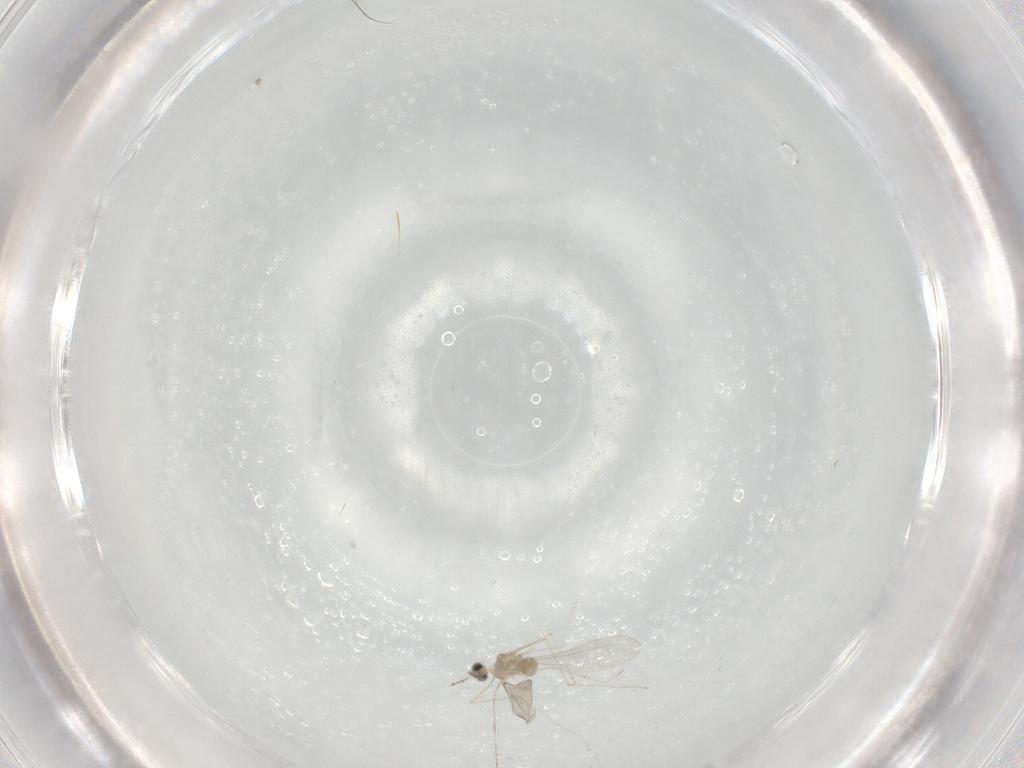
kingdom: Animalia
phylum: Arthropoda
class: Insecta
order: Diptera
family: Cecidomyiidae
